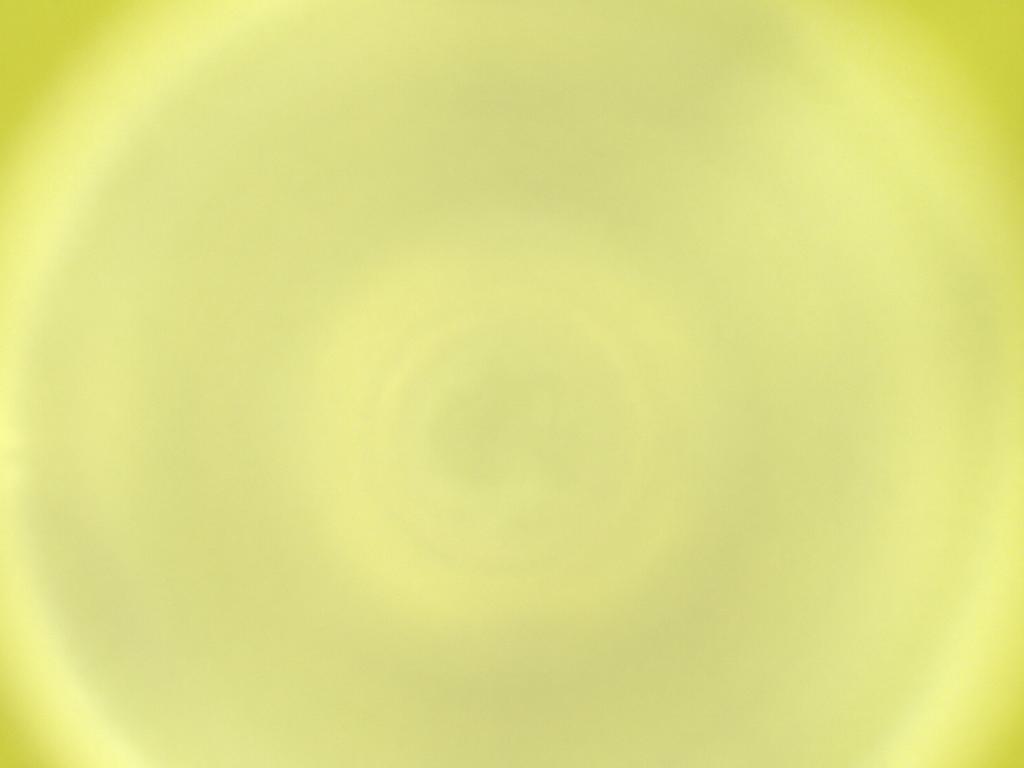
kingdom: Animalia
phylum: Arthropoda
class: Insecta
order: Diptera
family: Cecidomyiidae
